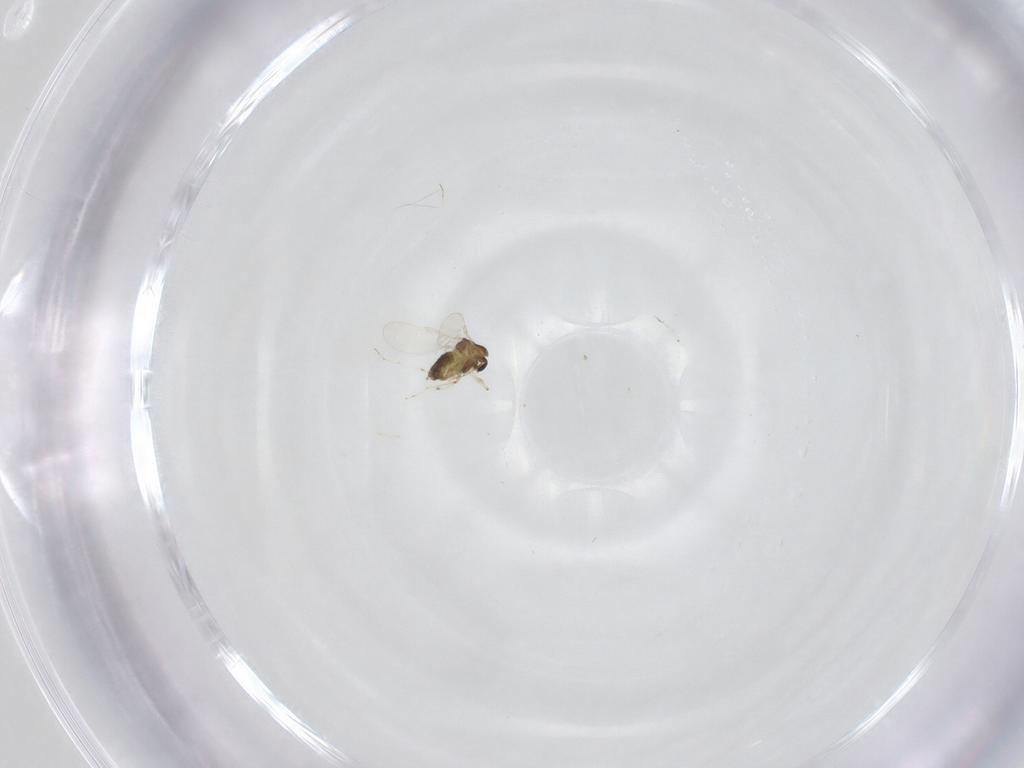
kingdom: Animalia
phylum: Arthropoda
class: Insecta
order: Diptera
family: Chironomidae
